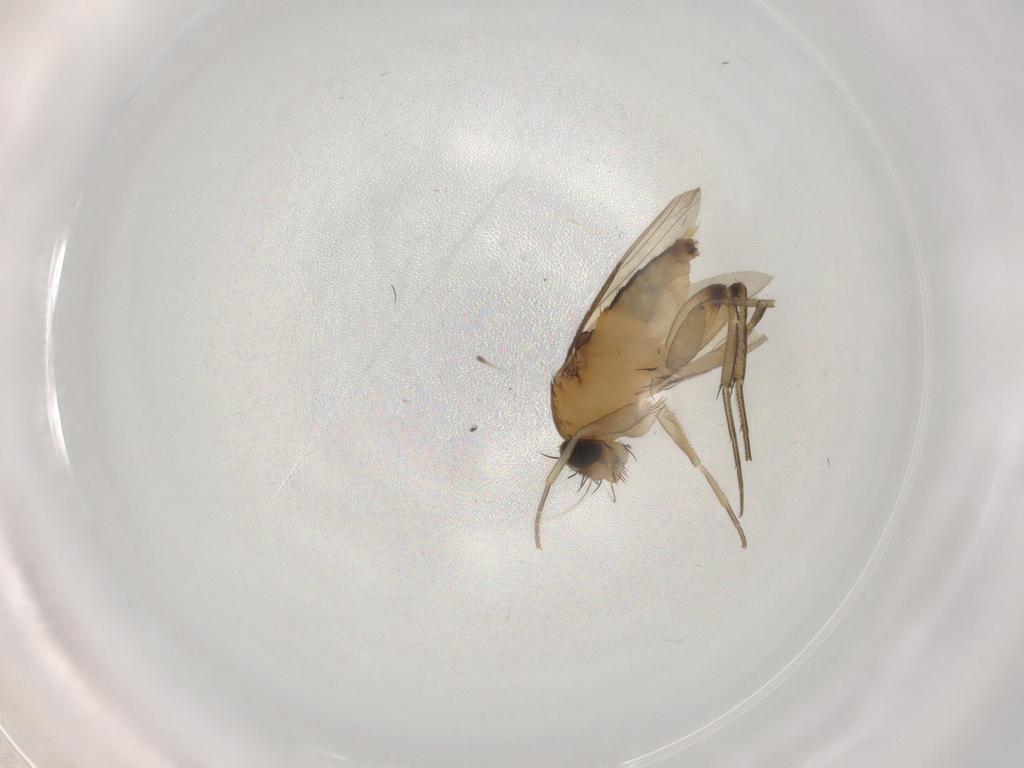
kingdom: Animalia
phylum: Arthropoda
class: Insecta
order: Diptera
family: Phoridae
